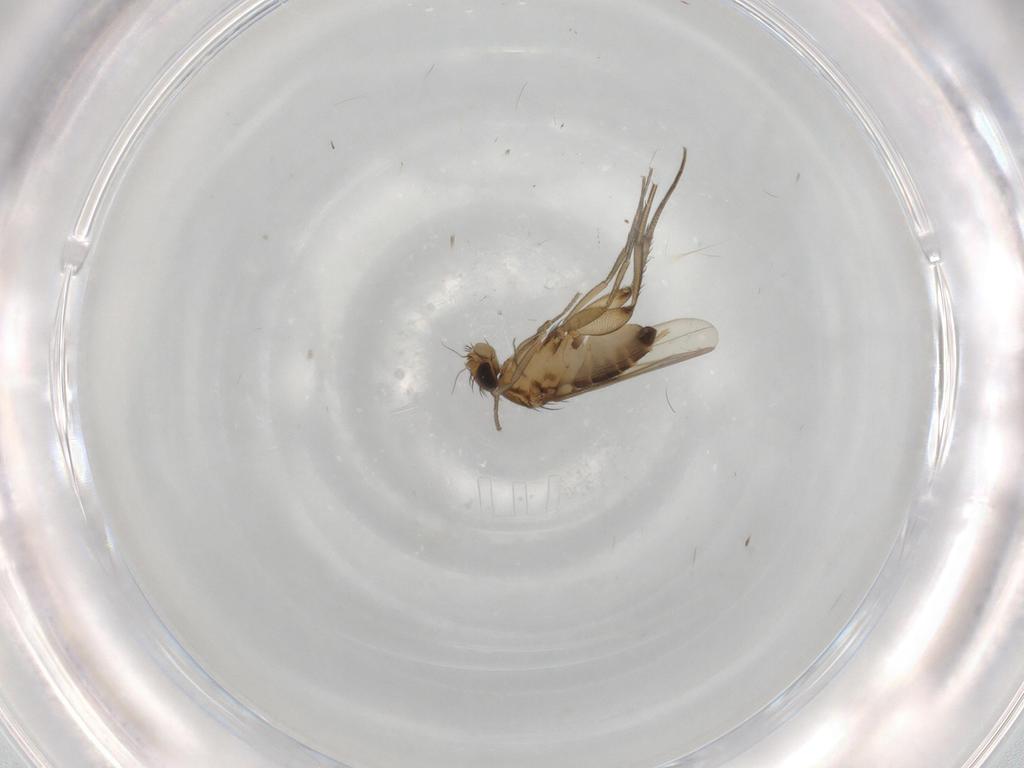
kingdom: Animalia
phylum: Arthropoda
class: Insecta
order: Diptera
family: Phoridae
